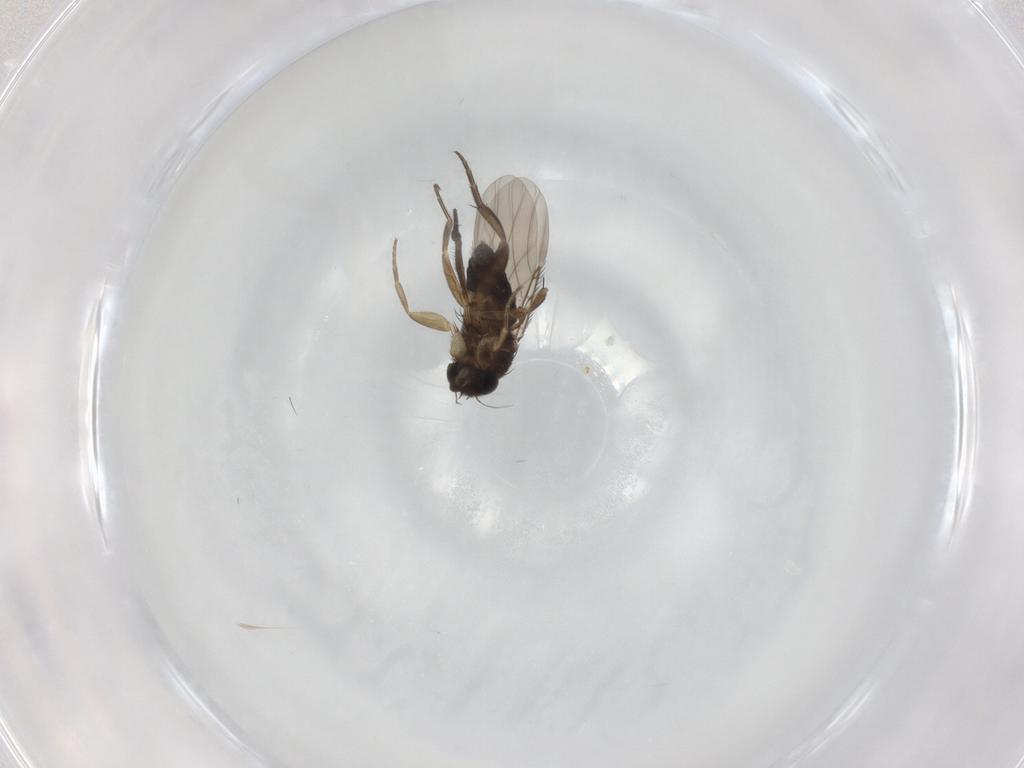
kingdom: Animalia
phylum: Arthropoda
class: Insecta
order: Diptera
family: Phoridae
